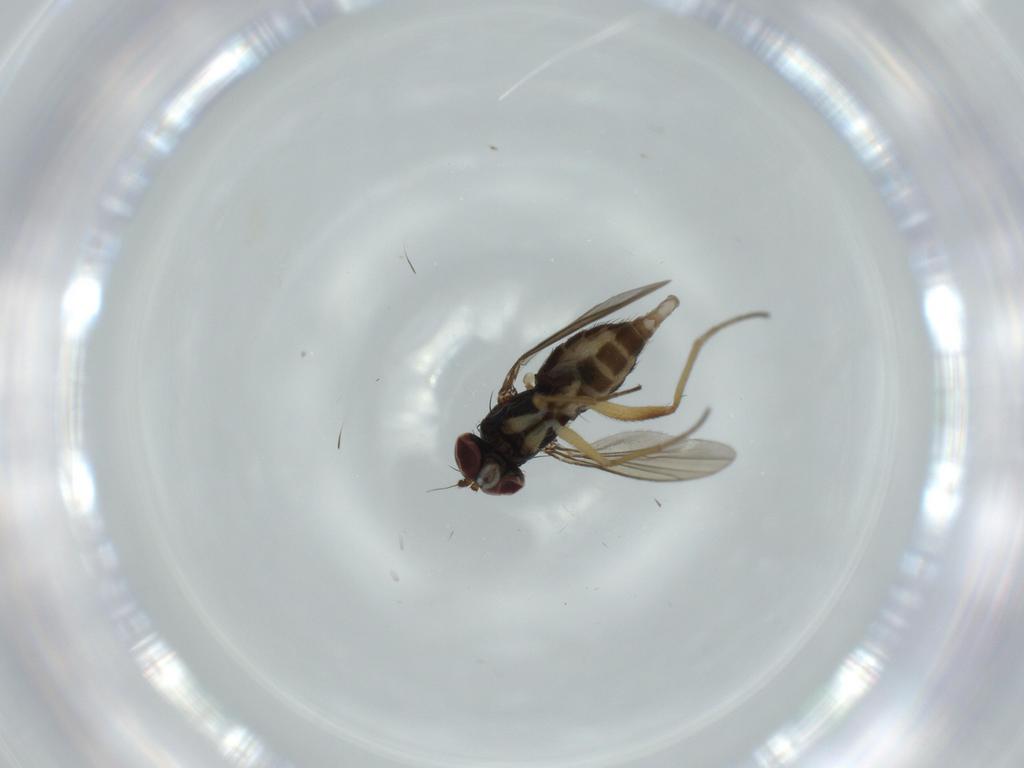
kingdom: Animalia
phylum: Arthropoda
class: Insecta
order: Diptera
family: Dolichopodidae
